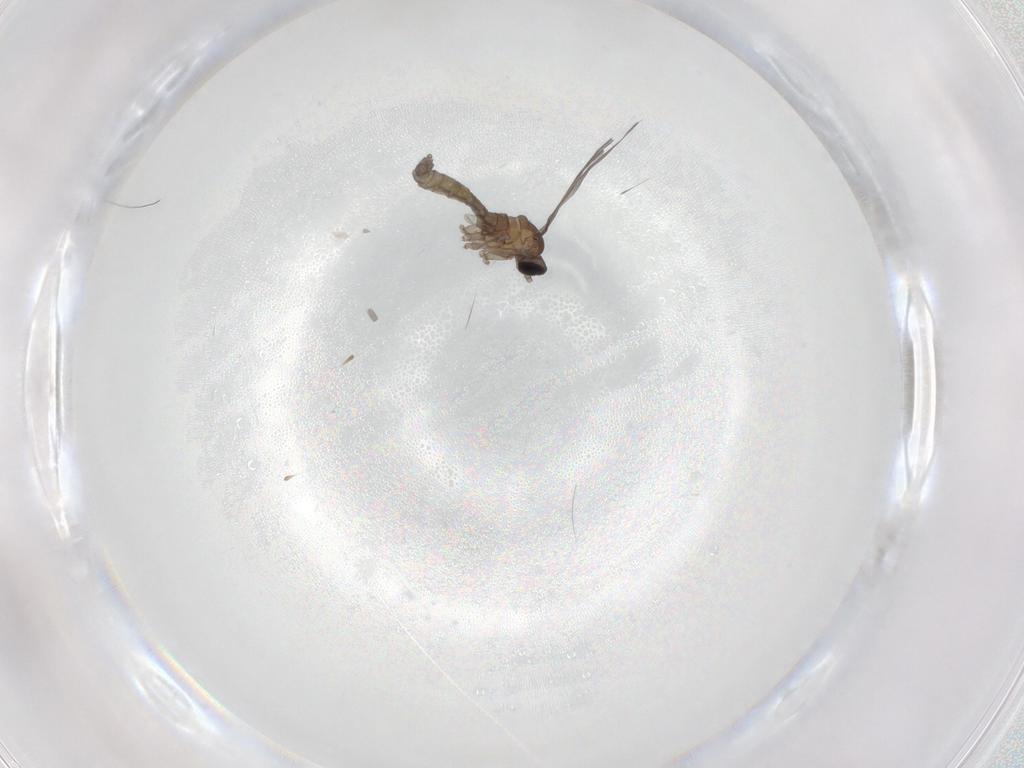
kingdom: Animalia
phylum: Arthropoda
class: Insecta
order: Diptera
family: Cecidomyiidae
